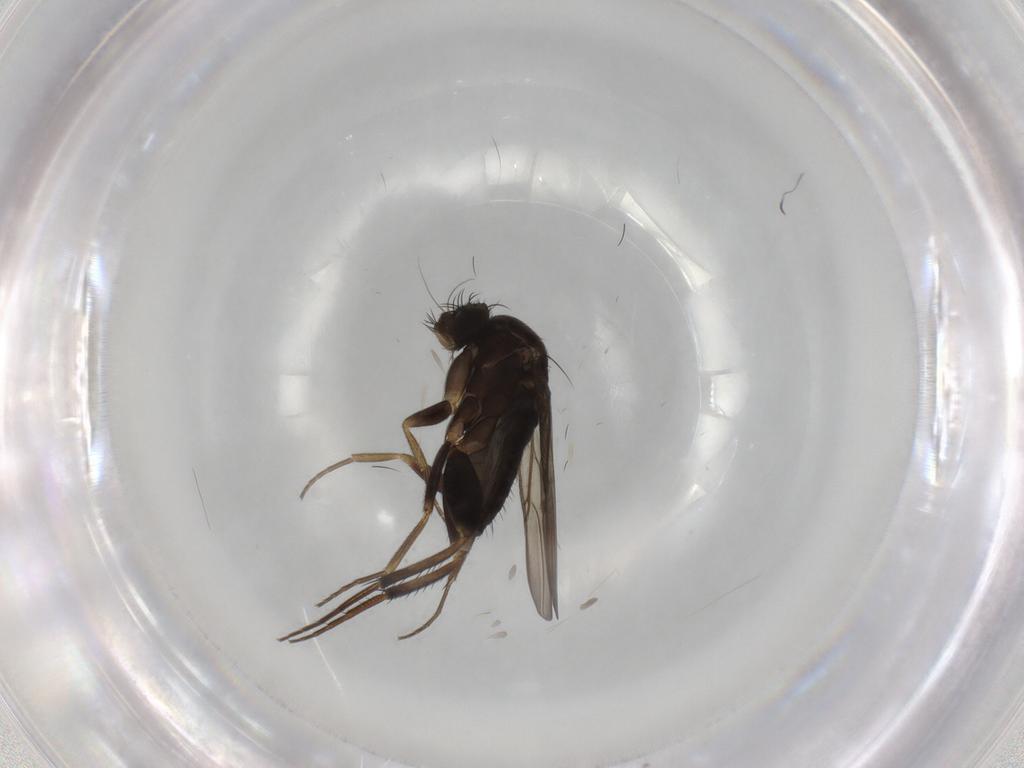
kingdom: Animalia
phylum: Arthropoda
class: Insecta
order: Diptera
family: Phoridae
